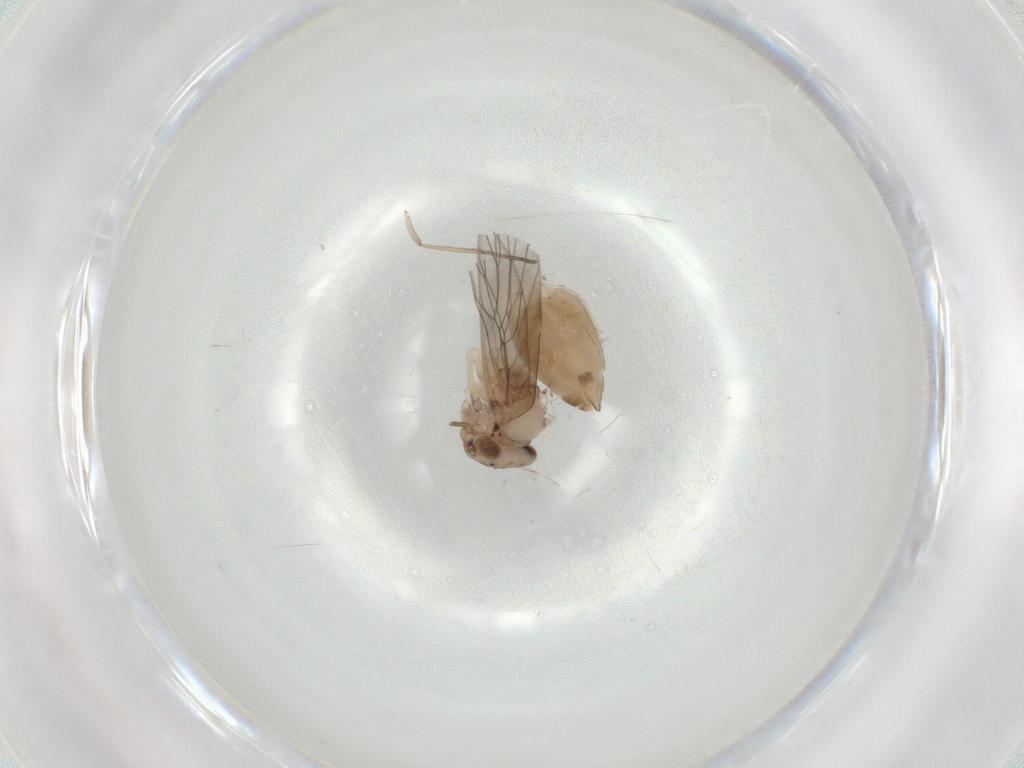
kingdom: Animalia
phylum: Arthropoda
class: Insecta
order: Psocodea
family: Lepidopsocidae
